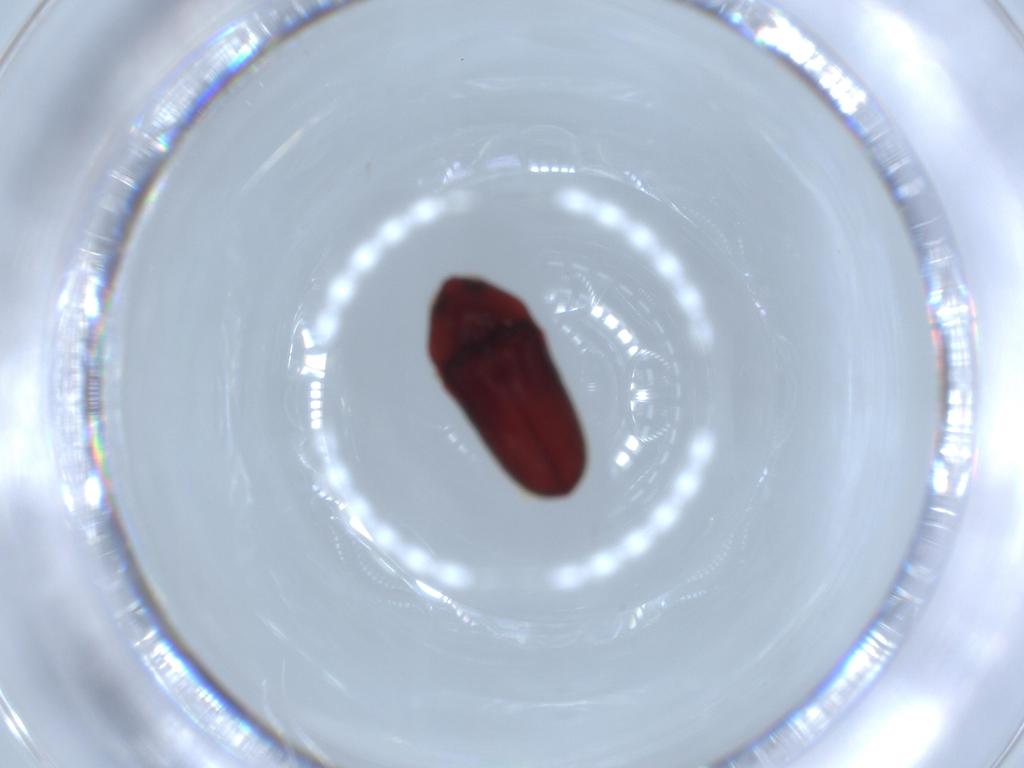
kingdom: Animalia
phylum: Arthropoda
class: Insecta
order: Coleoptera
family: Throscidae
